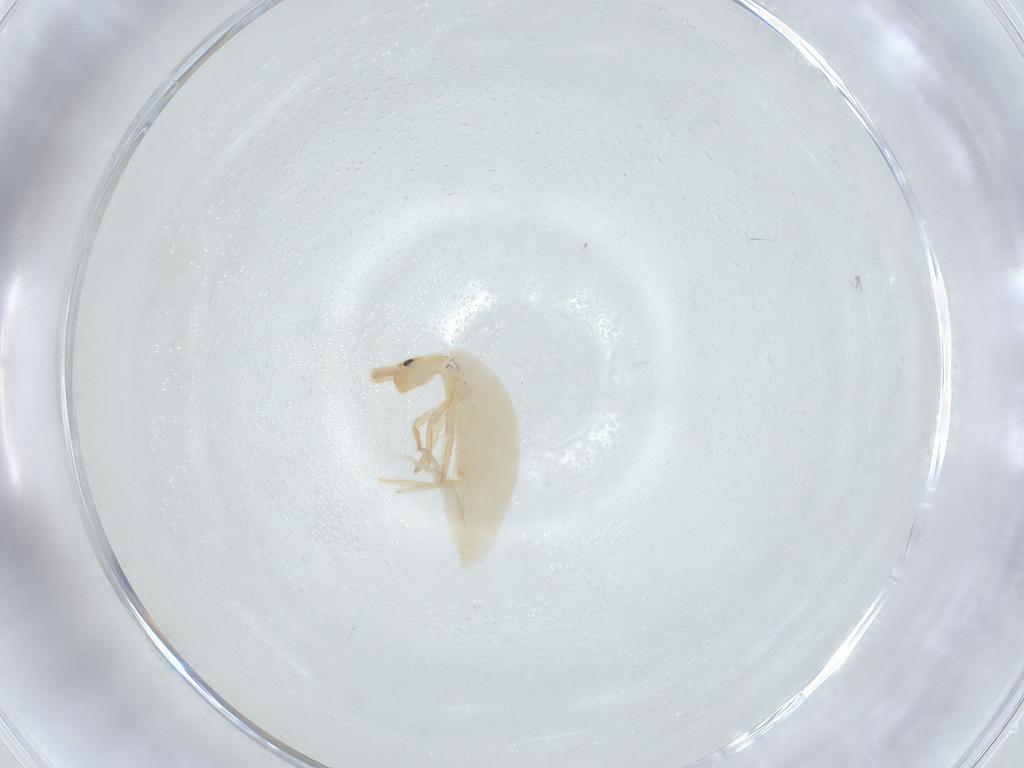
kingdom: Animalia
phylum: Arthropoda
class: Collembola
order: Entomobryomorpha
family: Entomobryidae
